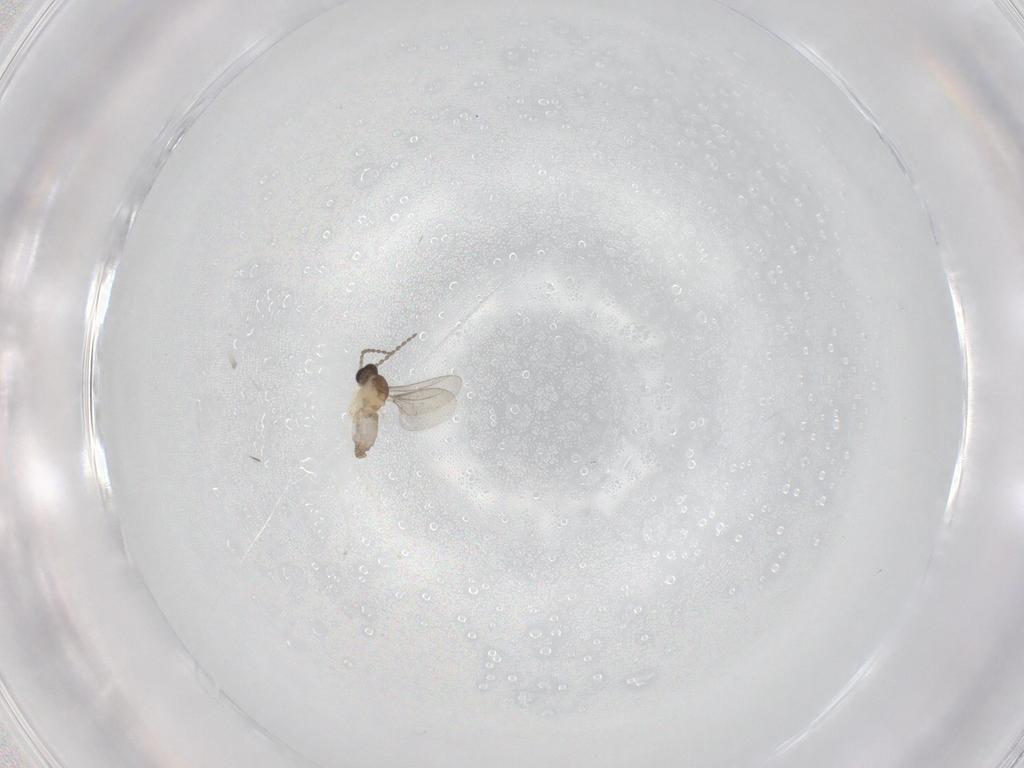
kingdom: Animalia
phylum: Arthropoda
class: Insecta
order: Diptera
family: Cecidomyiidae
